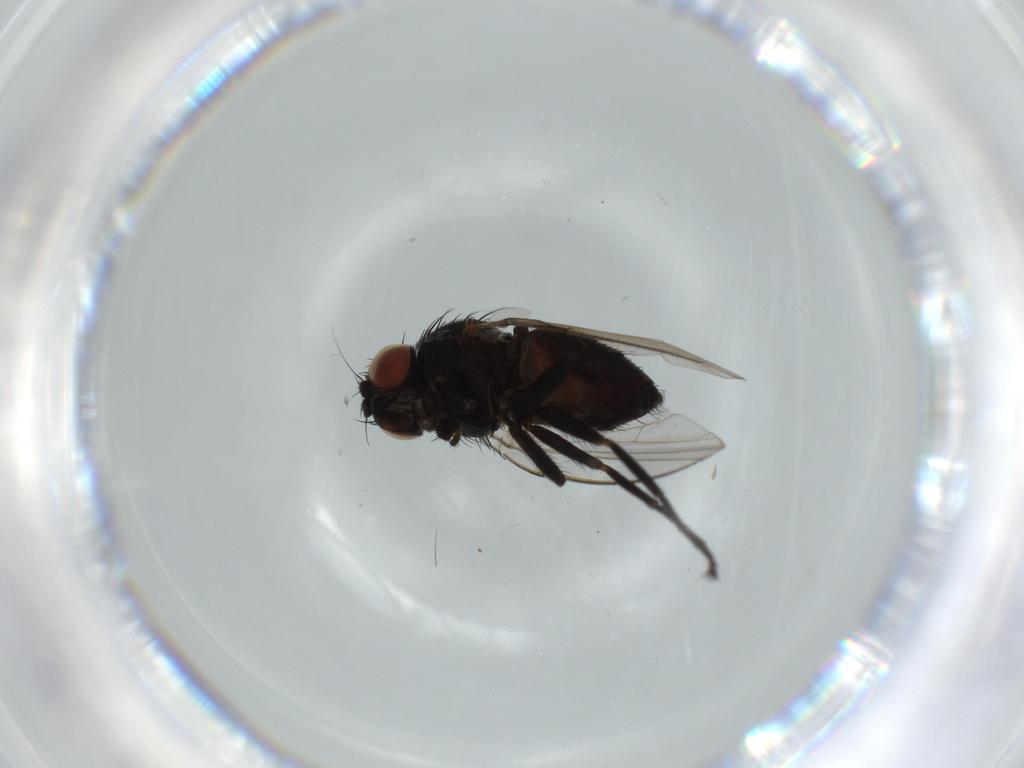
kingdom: Animalia
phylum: Arthropoda
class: Insecta
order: Diptera
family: Milichiidae
